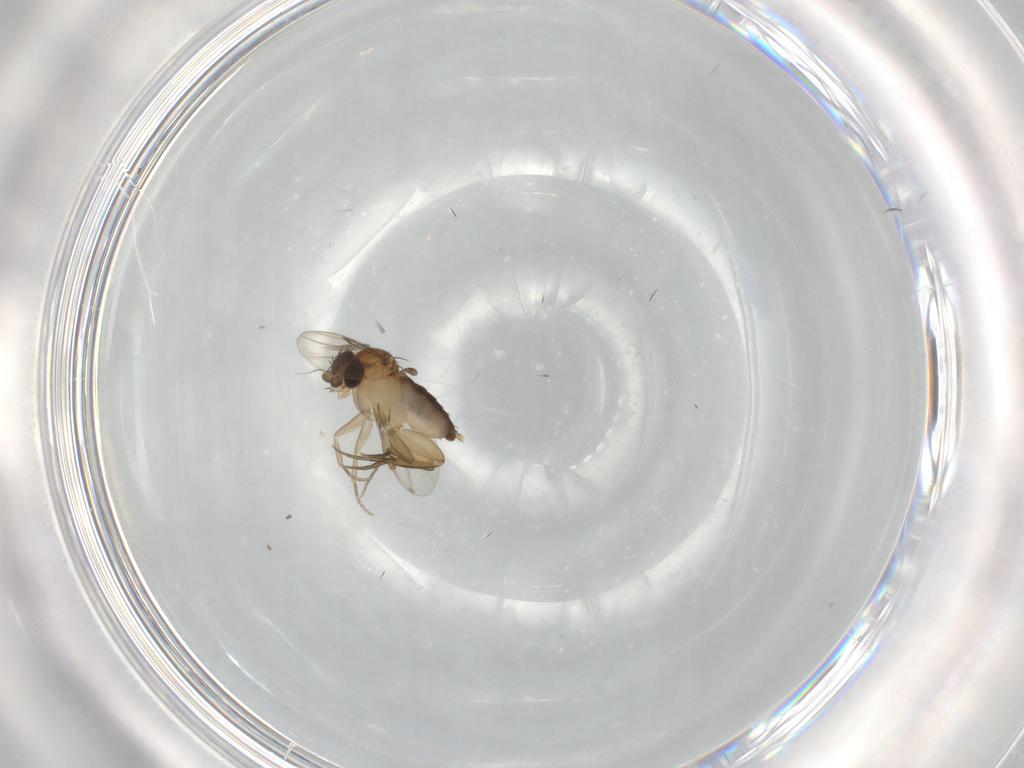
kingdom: Animalia
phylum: Arthropoda
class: Insecta
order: Diptera
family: Phoridae
